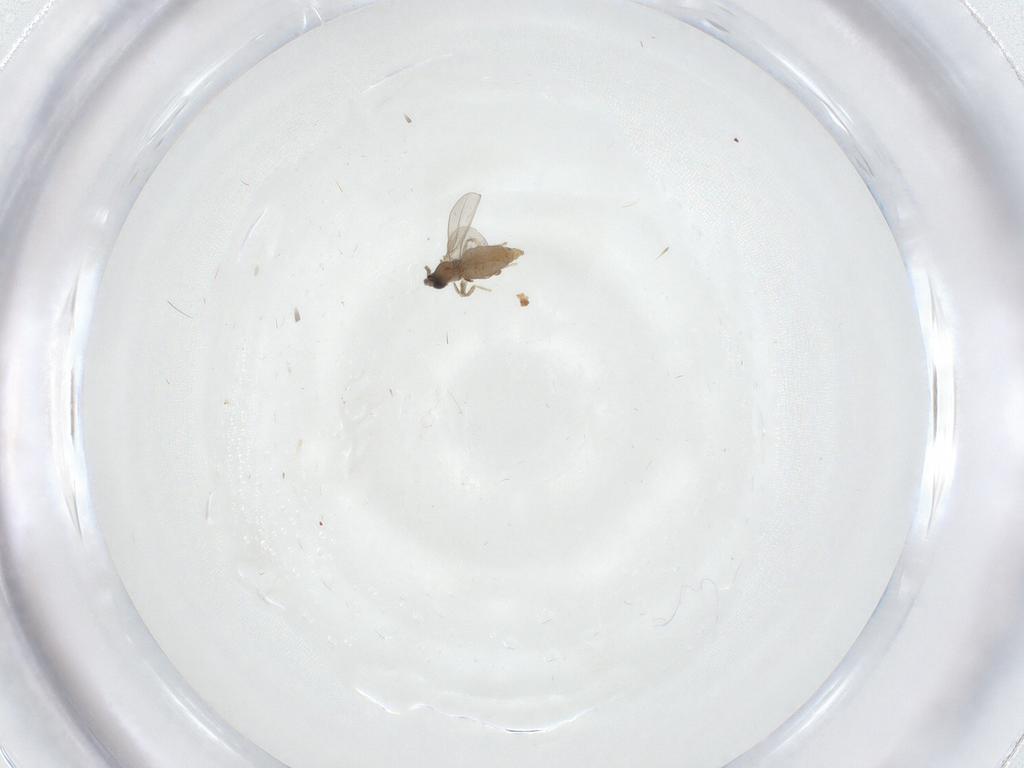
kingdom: Animalia
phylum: Arthropoda
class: Insecta
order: Diptera
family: Cecidomyiidae
